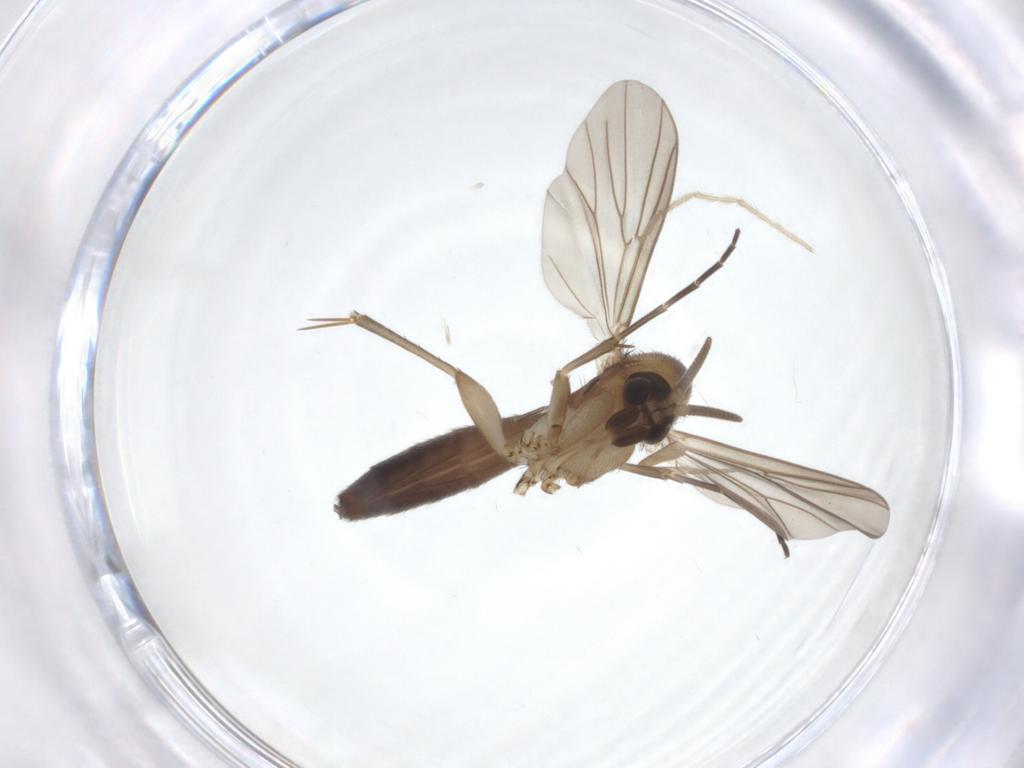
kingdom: Animalia
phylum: Arthropoda
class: Insecta
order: Diptera
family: Mycetophilidae
